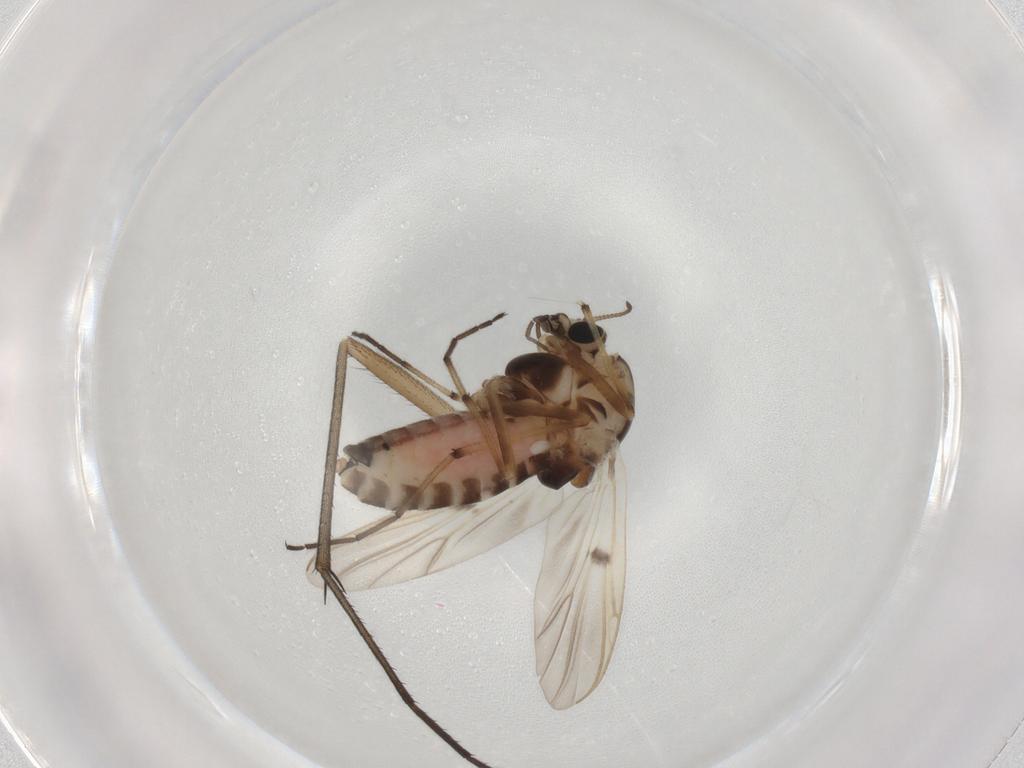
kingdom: Animalia
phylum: Arthropoda
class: Insecta
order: Diptera
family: Chironomidae
